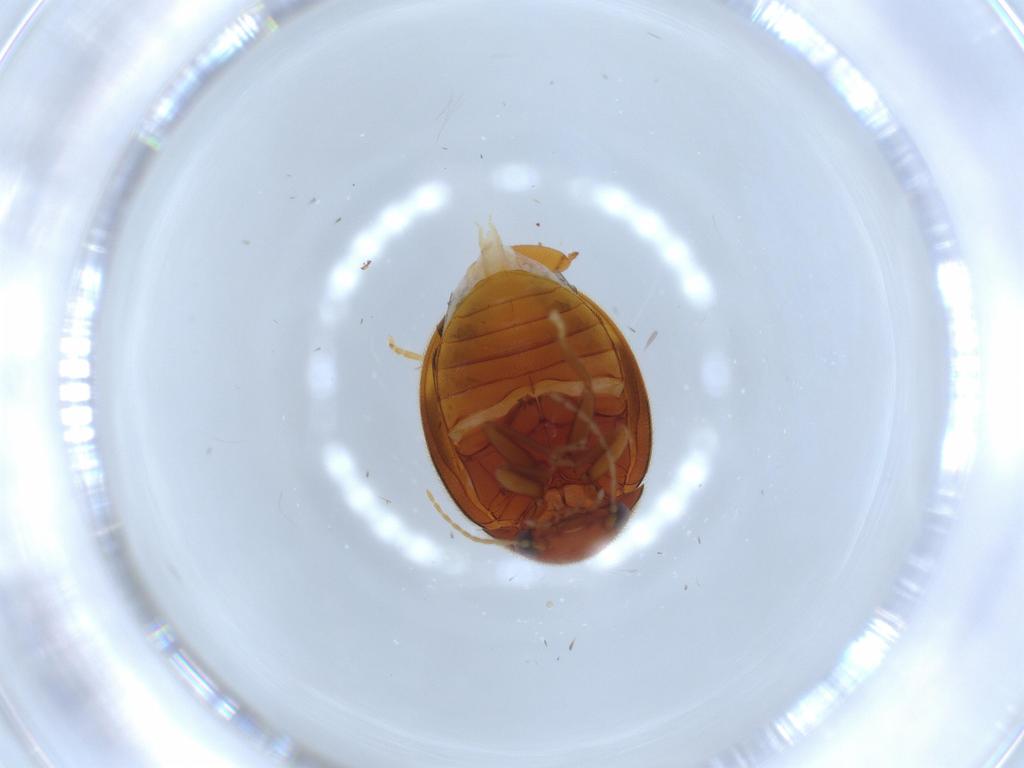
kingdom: Animalia
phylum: Arthropoda
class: Insecta
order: Coleoptera
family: Scirtidae
